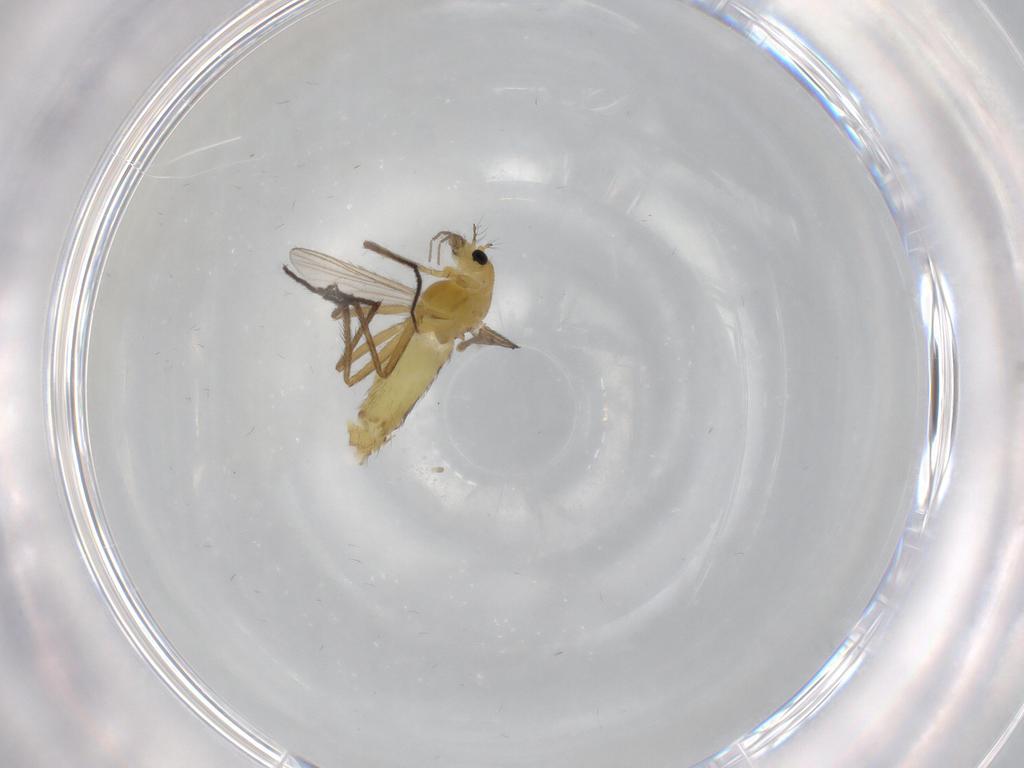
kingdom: Animalia
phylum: Arthropoda
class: Insecta
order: Diptera
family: Chironomidae
